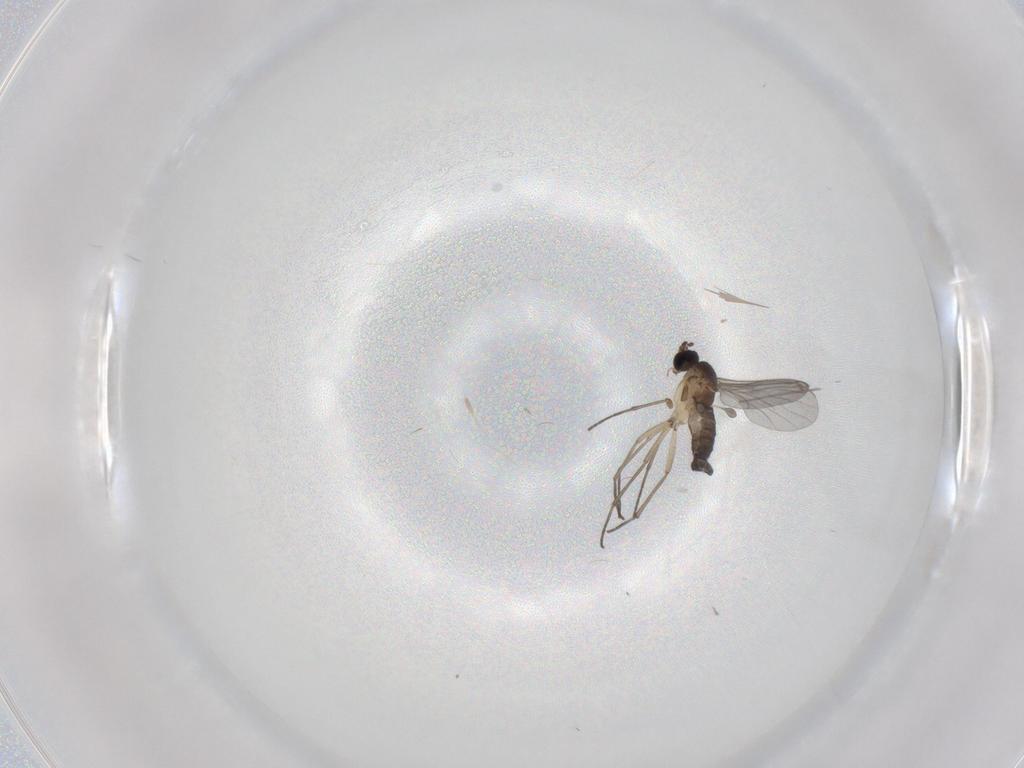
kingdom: Animalia
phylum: Arthropoda
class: Insecta
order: Diptera
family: Sciaridae
